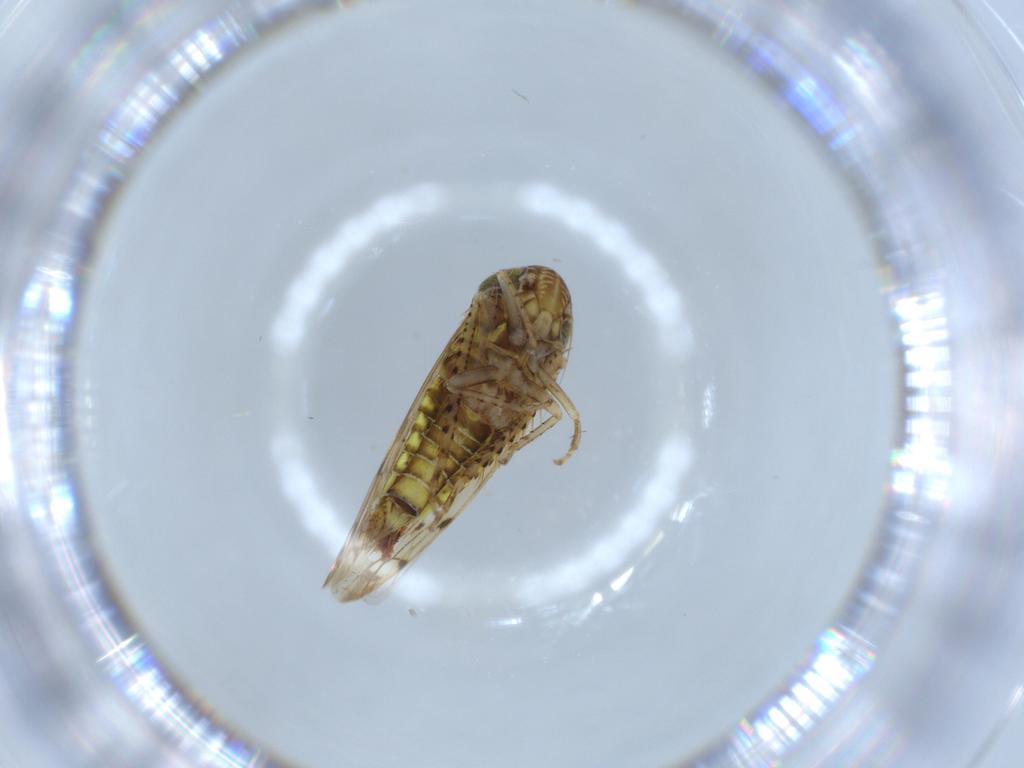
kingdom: Animalia
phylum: Arthropoda
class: Insecta
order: Hemiptera
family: Cicadellidae
